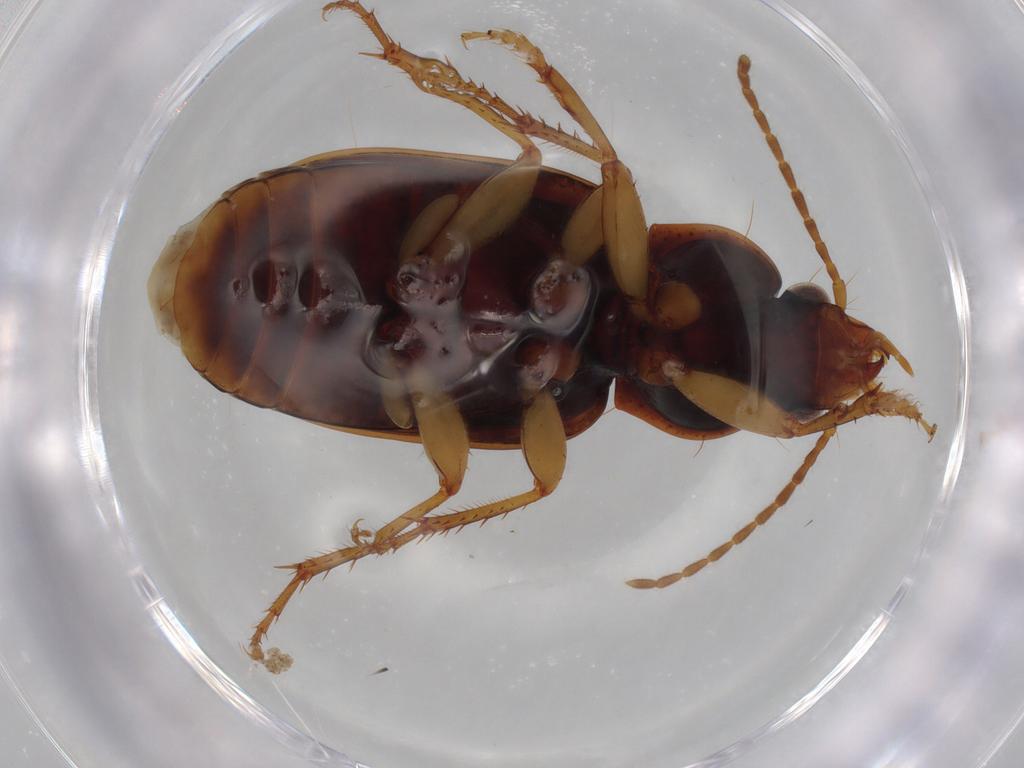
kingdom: Animalia
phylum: Arthropoda
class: Insecta
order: Coleoptera
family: Carabidae
